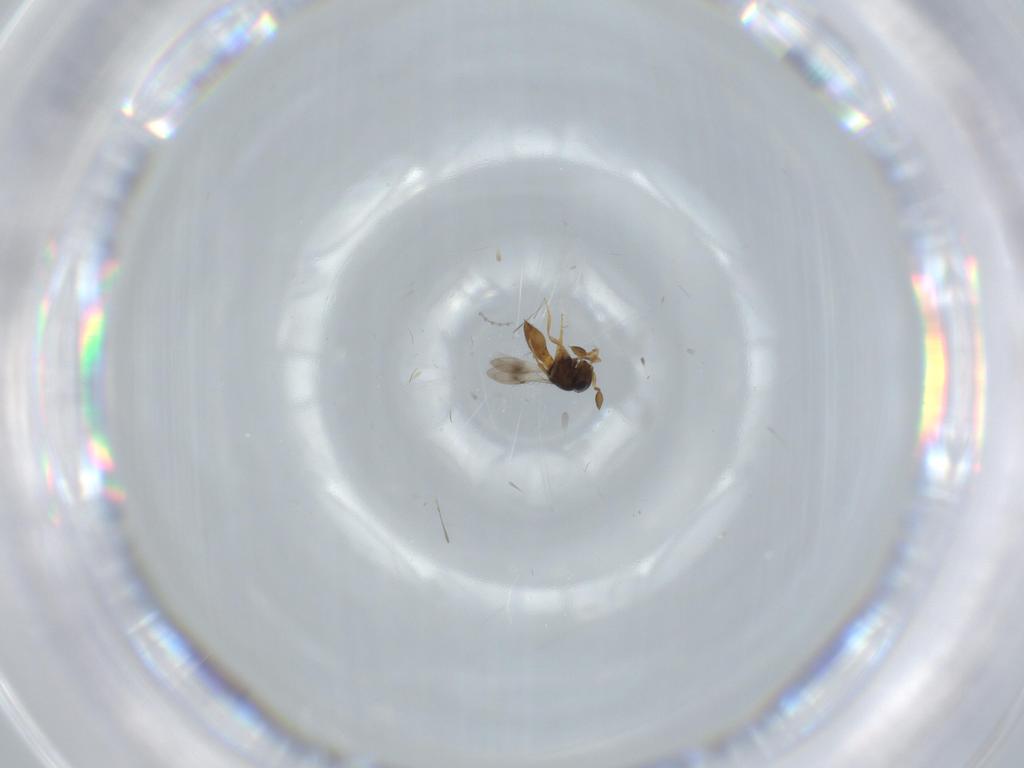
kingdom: Animalia
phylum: Arthropoda
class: Insecta
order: Hymenoptera
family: Scelionidae
